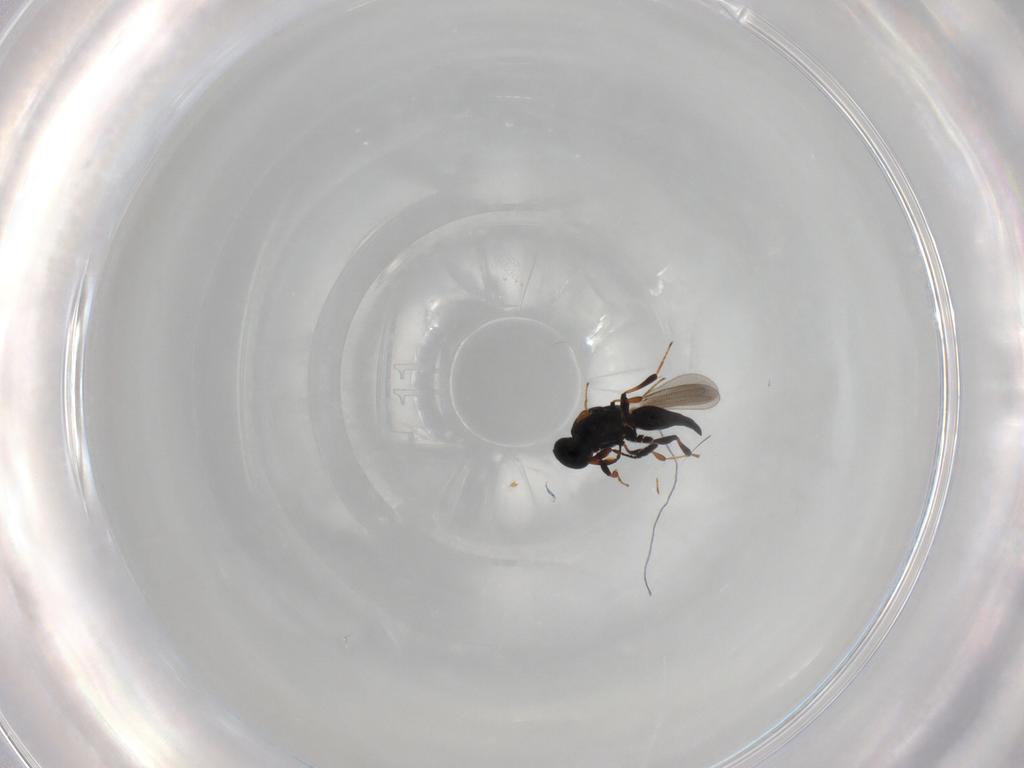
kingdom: Animalia
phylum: Arthropoda
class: Insecta
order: Hymenoptera
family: Platygastridae
